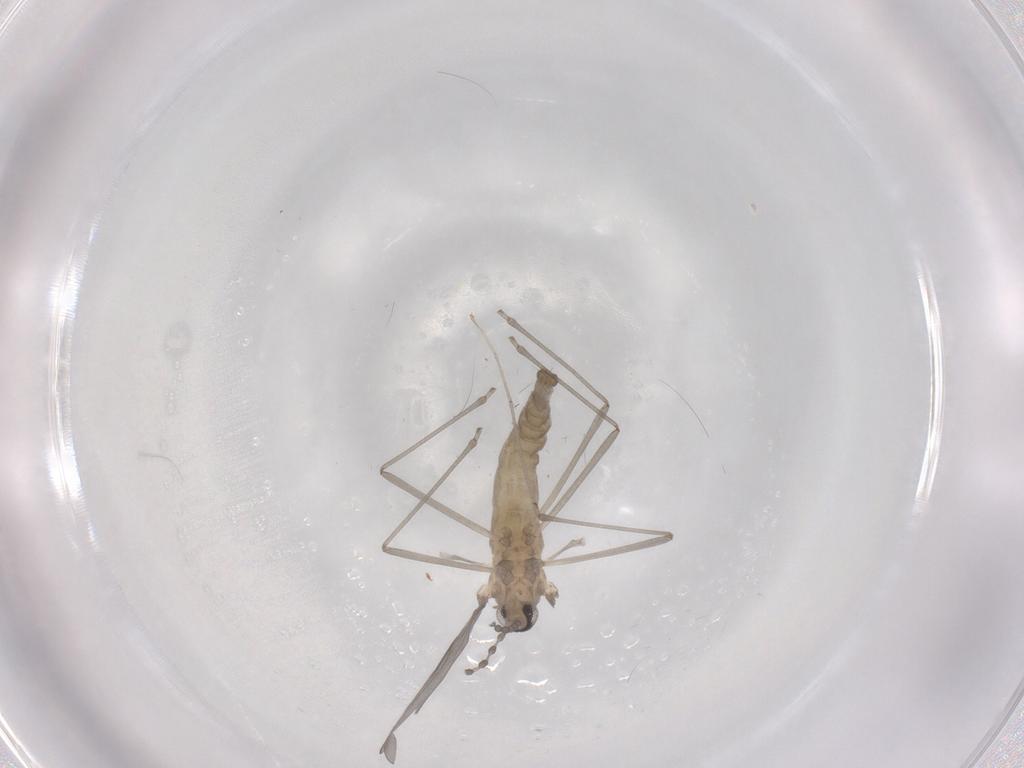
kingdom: Animalia
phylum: Arthropoda
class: Insecta
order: Diptera
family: Cecidomyiidae
